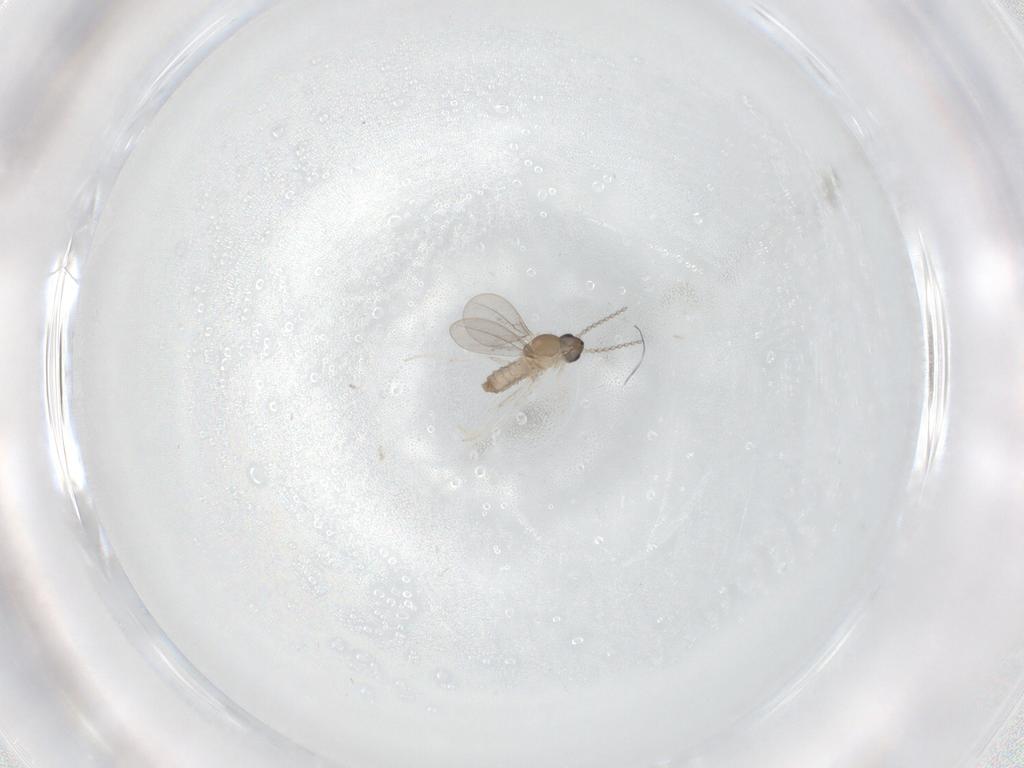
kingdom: Animalia
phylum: Arthropoda
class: Insecta
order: Diptera
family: Cecidomyiidae
